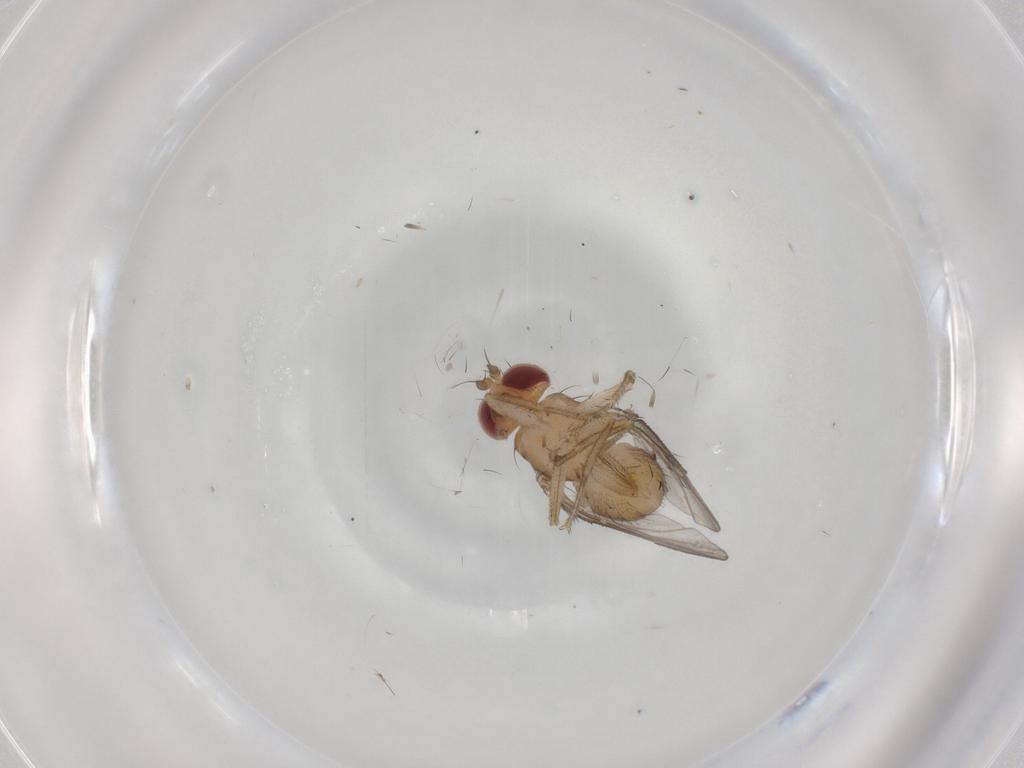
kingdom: Animalia
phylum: Arthropoda
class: Insecta
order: Diptera
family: Drosophilidae
